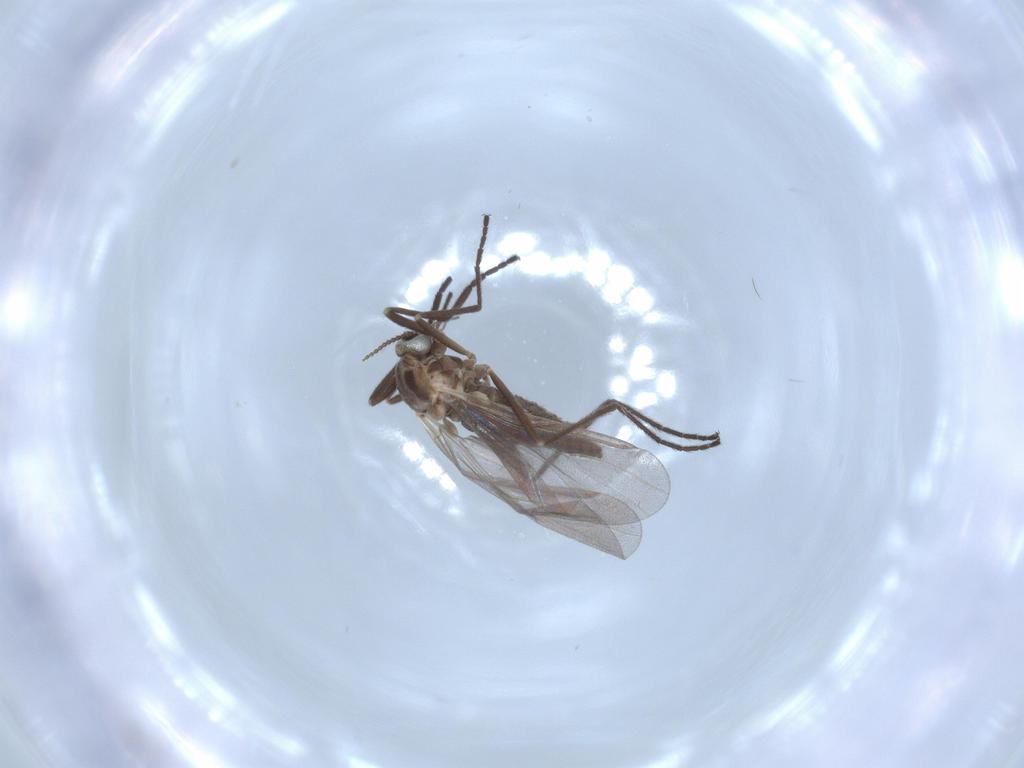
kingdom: Animalia
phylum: Arthropoda
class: Insecta
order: Diptera
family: Cecidomyiidae
